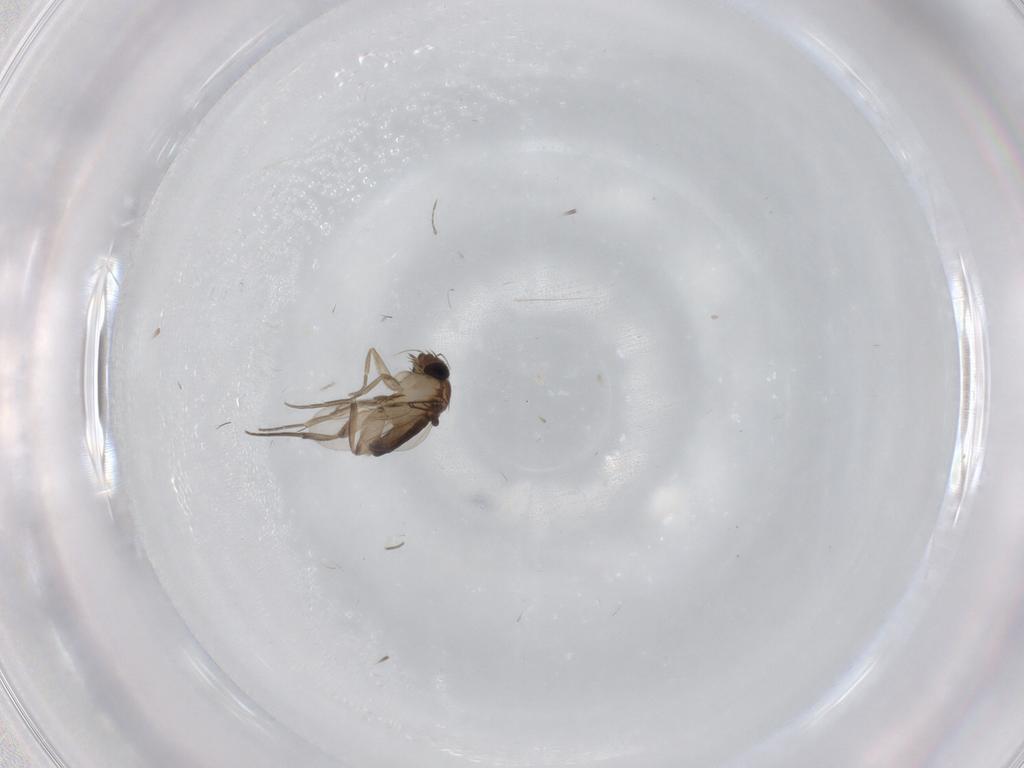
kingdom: Animalia
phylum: Arthropoda
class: Insecta
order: Diptera
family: Phoridae
